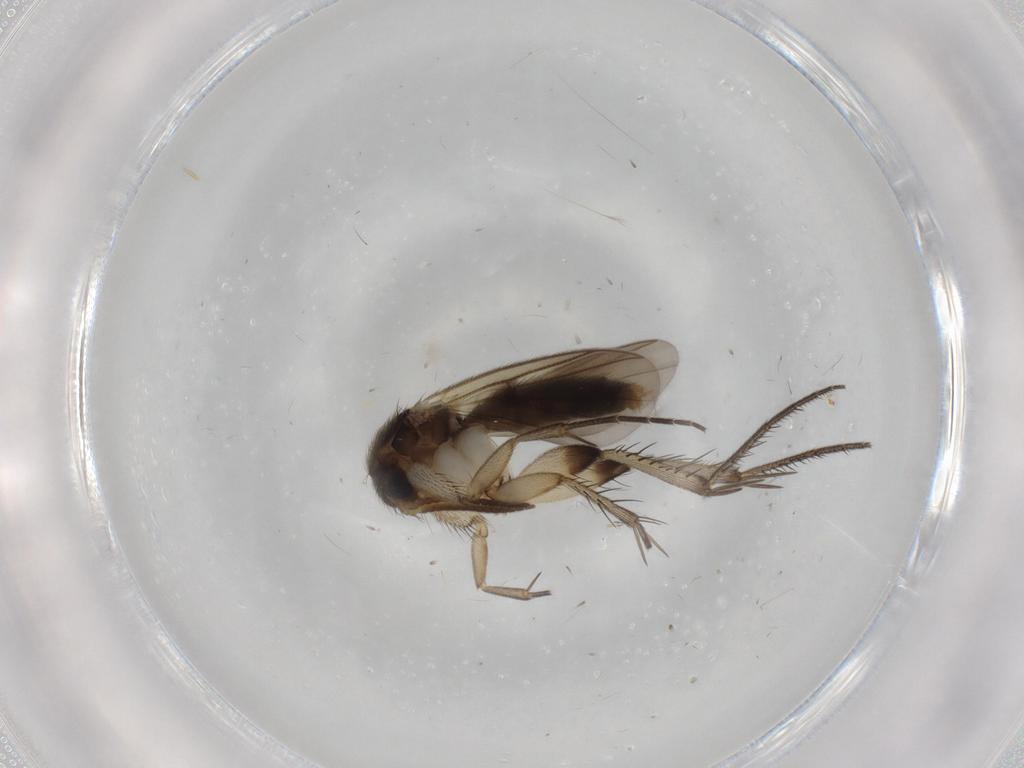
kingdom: Animalia
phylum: Arthropoda
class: Insecta
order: Diptera
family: Mycetophilidae
